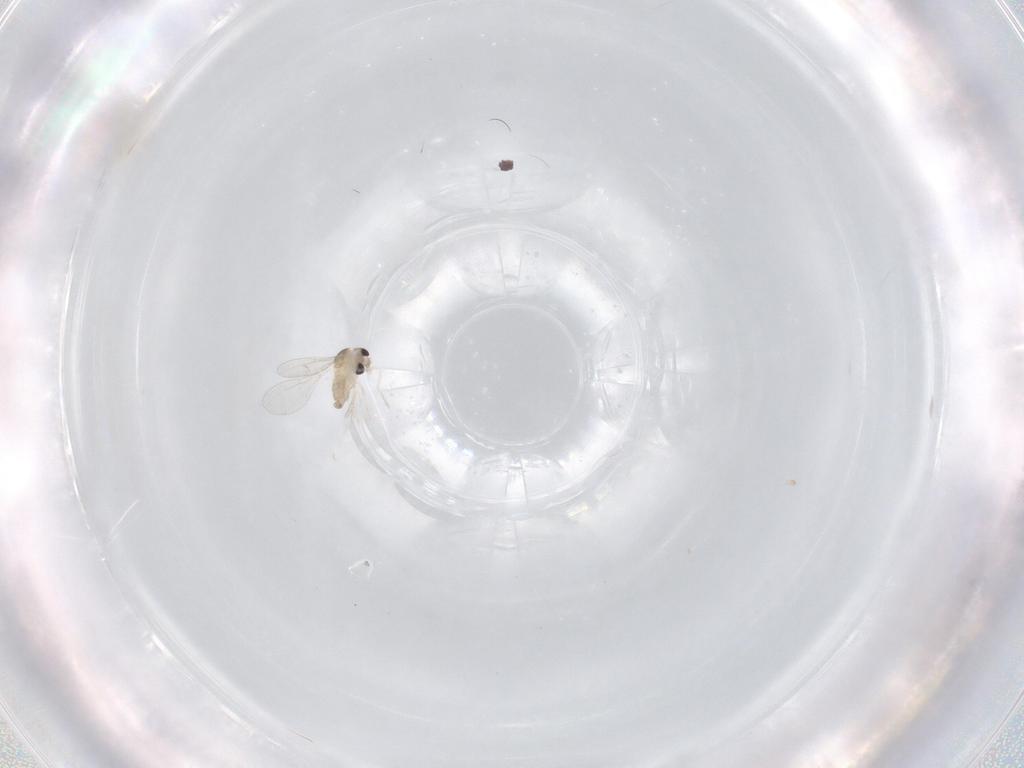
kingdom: Animalia
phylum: Arthropoda
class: Insecta
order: Diptera
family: Cecidomyiidae
